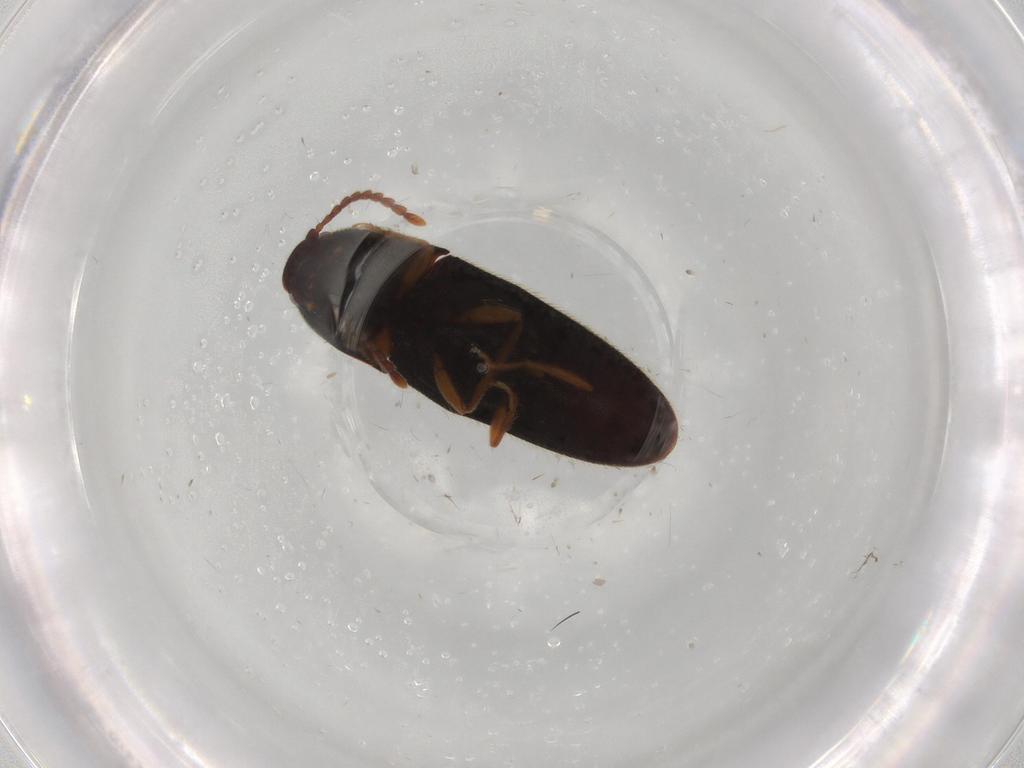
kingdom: Animalia
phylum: Arthropoda
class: Insecta
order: Coleoptera
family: Elateridae
